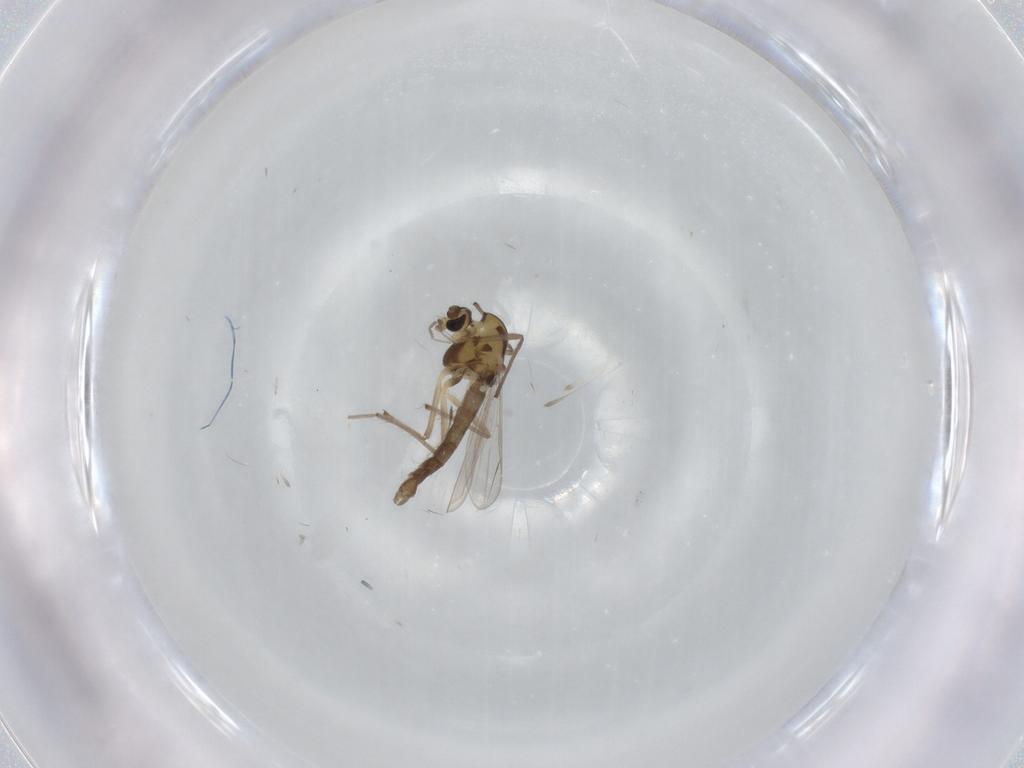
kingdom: Animalia
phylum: Arthropoda
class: Insecta
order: Diptera
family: Chironomidae
